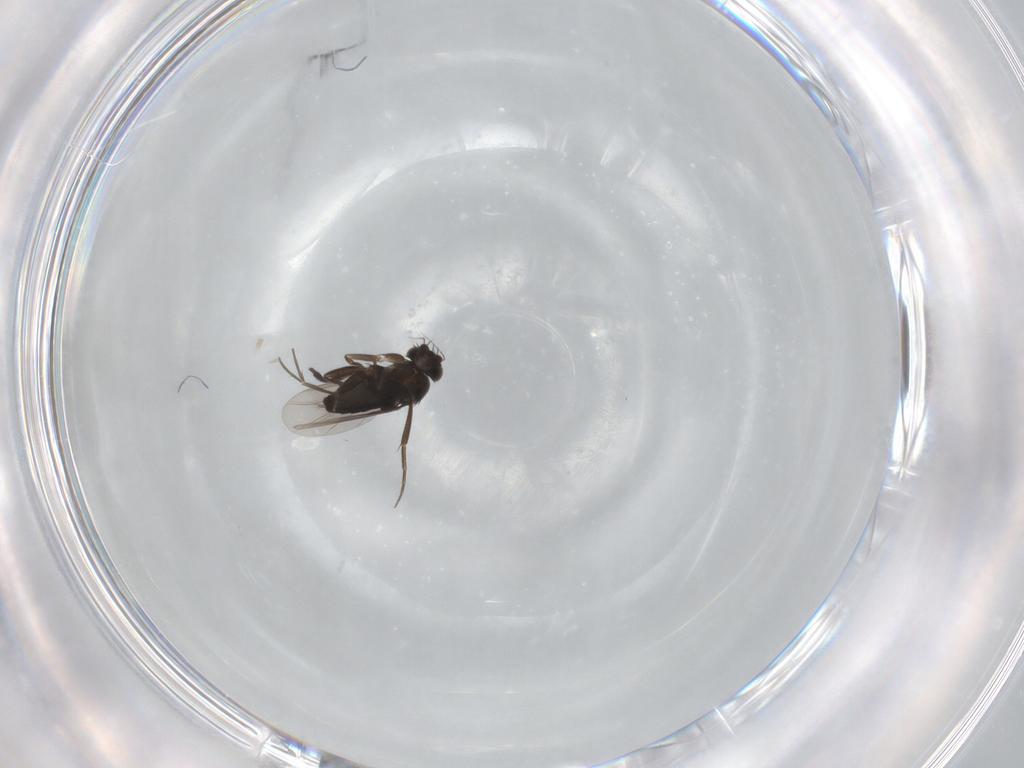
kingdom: Animalia
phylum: Arthropoda
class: Insecta
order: Diptera
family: Phoridae
